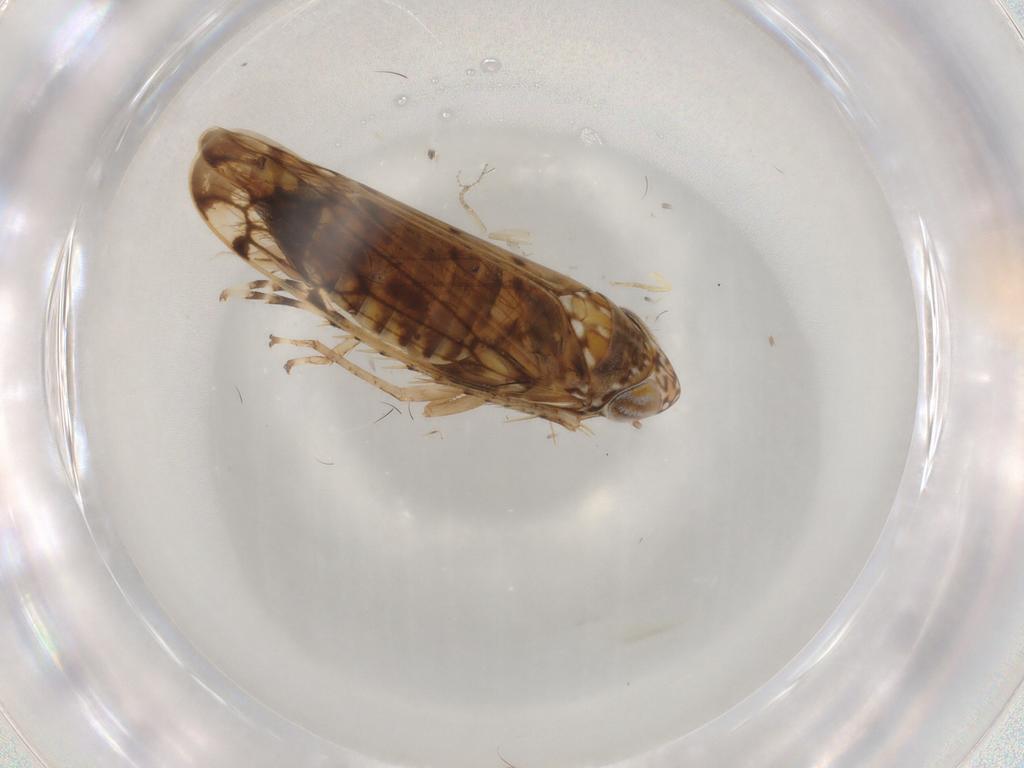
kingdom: Animalia
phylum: Arthropoda
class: Insecta
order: Hemiptera
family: Cicadellidae
